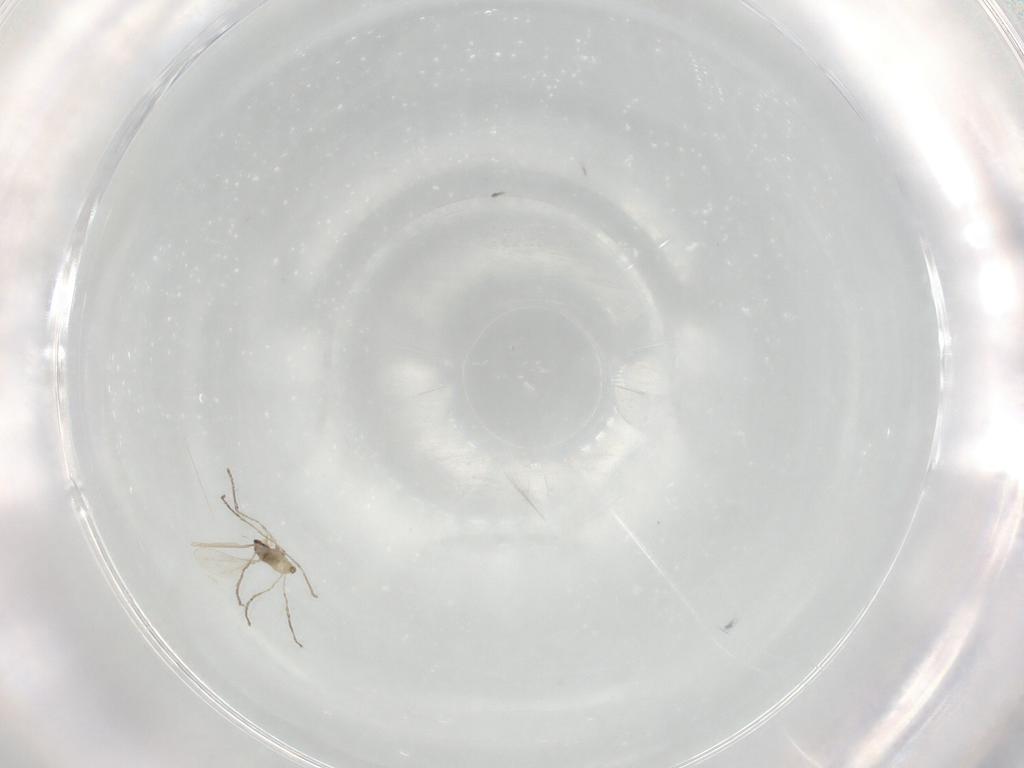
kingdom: Animalia
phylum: Arthropoda
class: Insecta
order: Diptera
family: Cecidomyiidae
